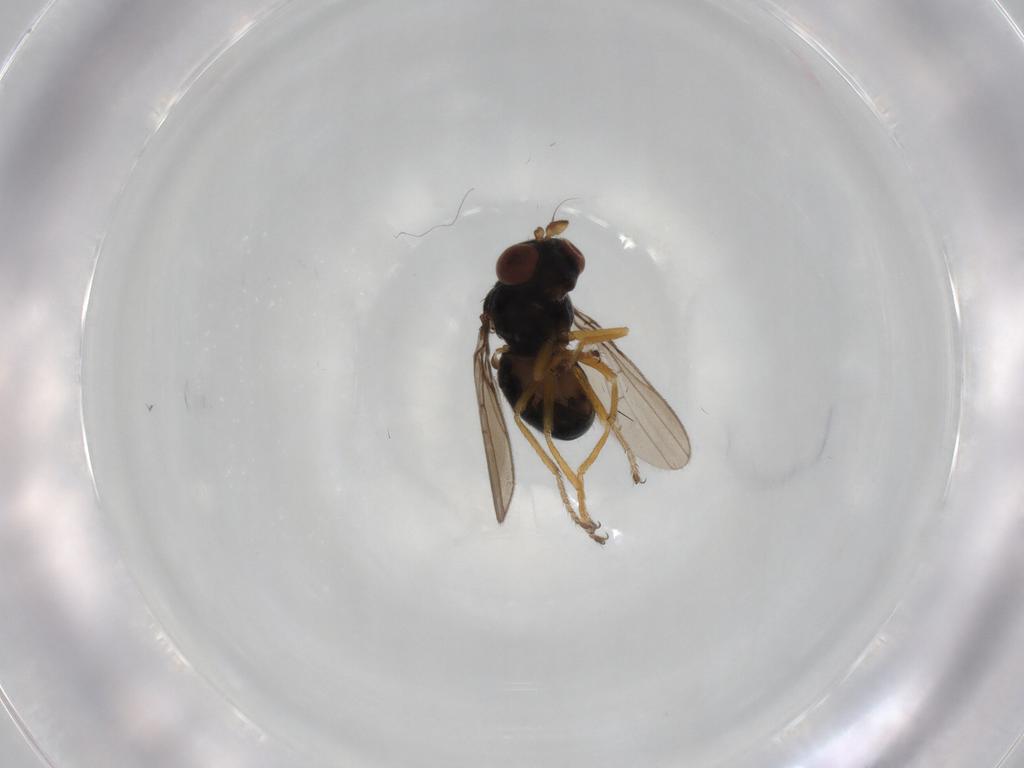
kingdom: Animalia
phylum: Arthropoda
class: Insecta
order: Diptera
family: Ephydridae
